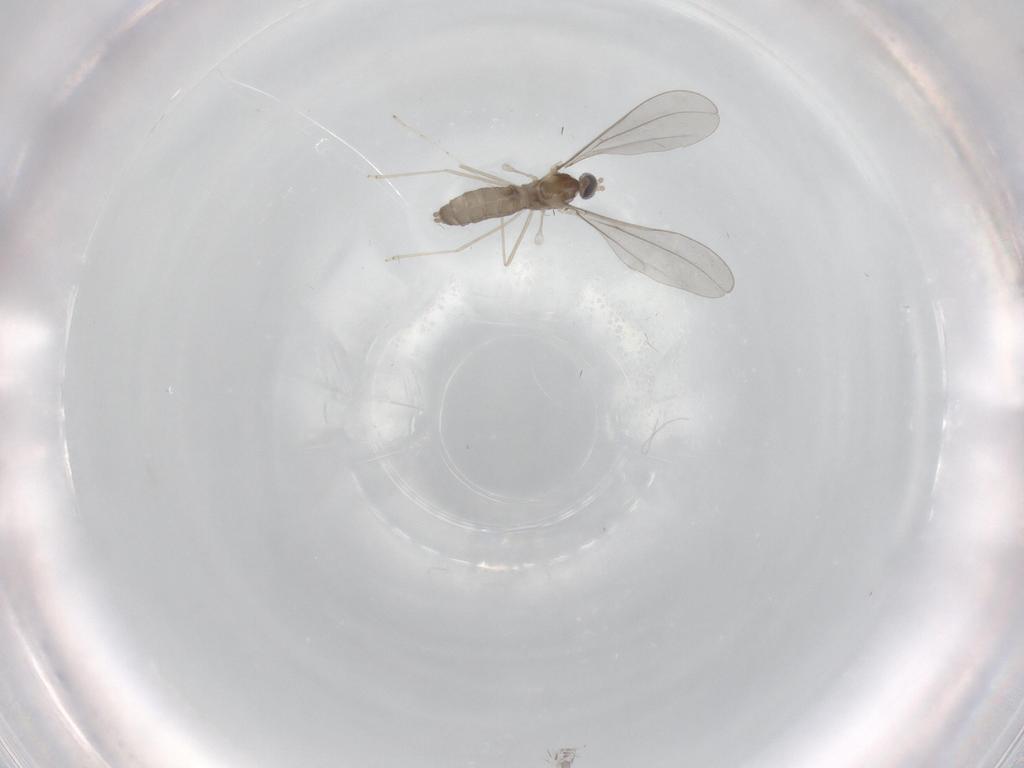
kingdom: Animalia
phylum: Arthropoda
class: Insecta
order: Diptera
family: Cecidomyiidae
